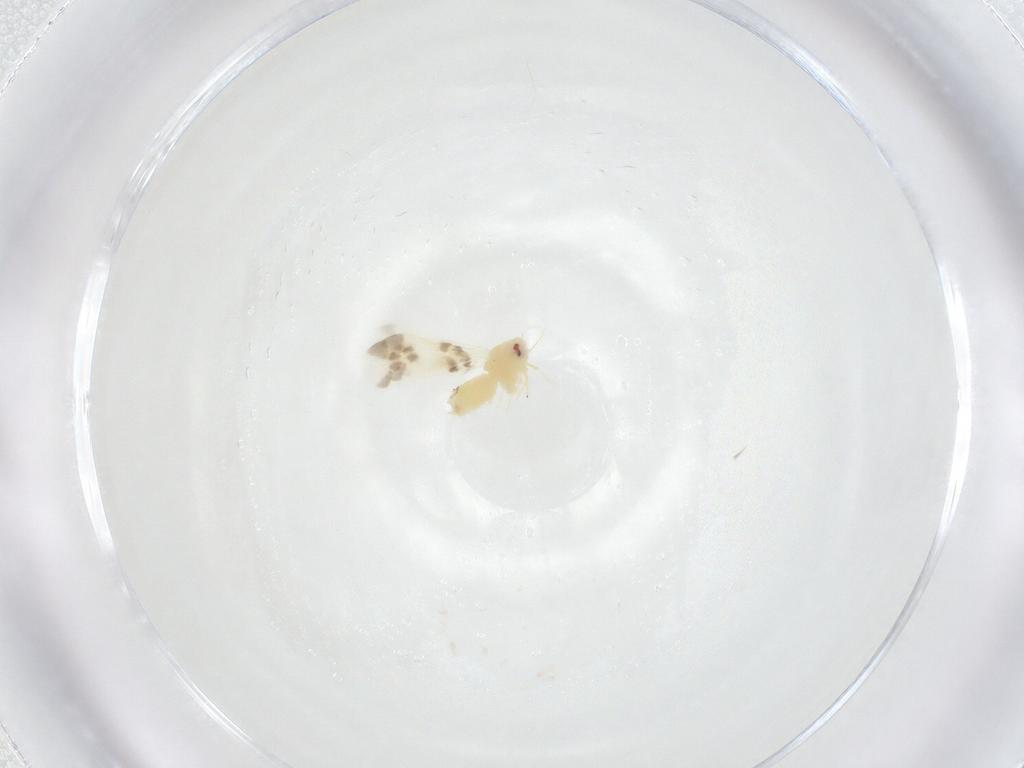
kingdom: Animalia
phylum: Arthropoda
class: Insecta
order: Hemiptera
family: Aleyrodidae
